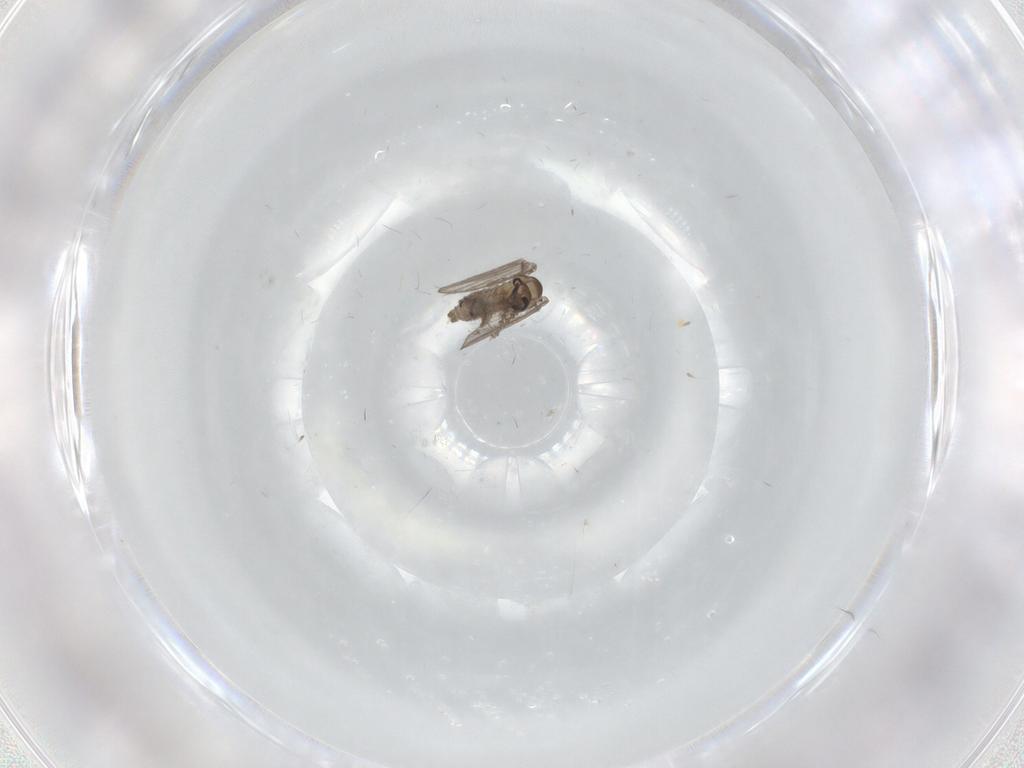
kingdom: Animalia
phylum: Arthropoda
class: Insecta
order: Diptera
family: Psychodidae
